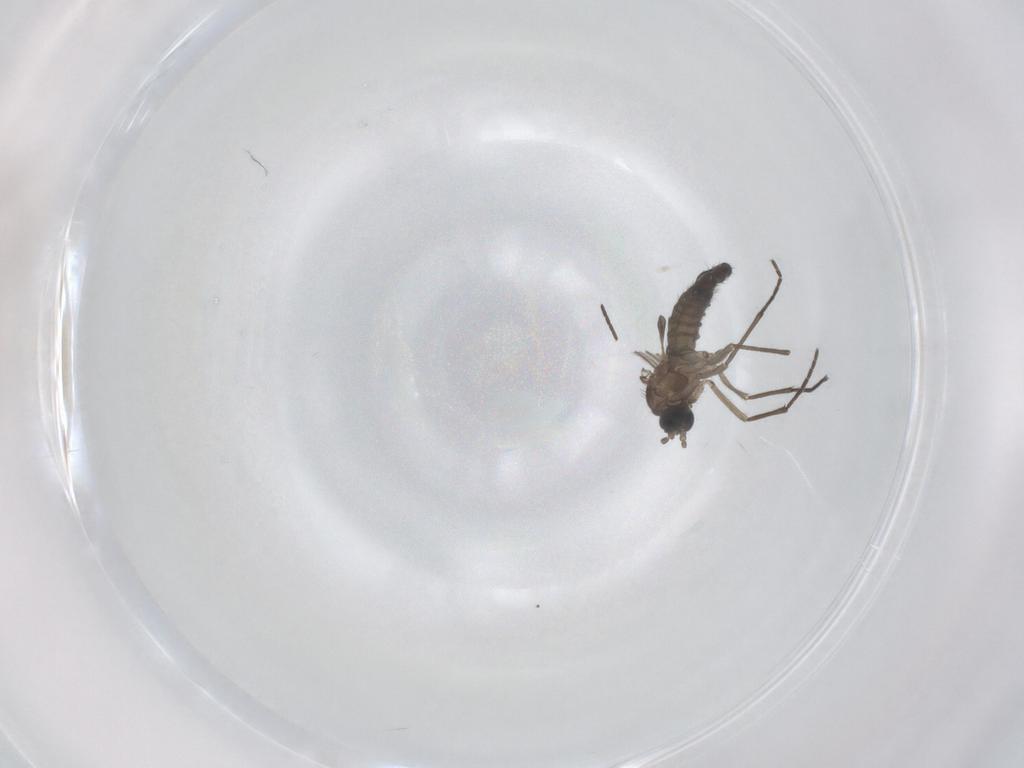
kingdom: Animalia
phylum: Arthropoda
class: Insecta
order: Diptera
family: Sciaridae
